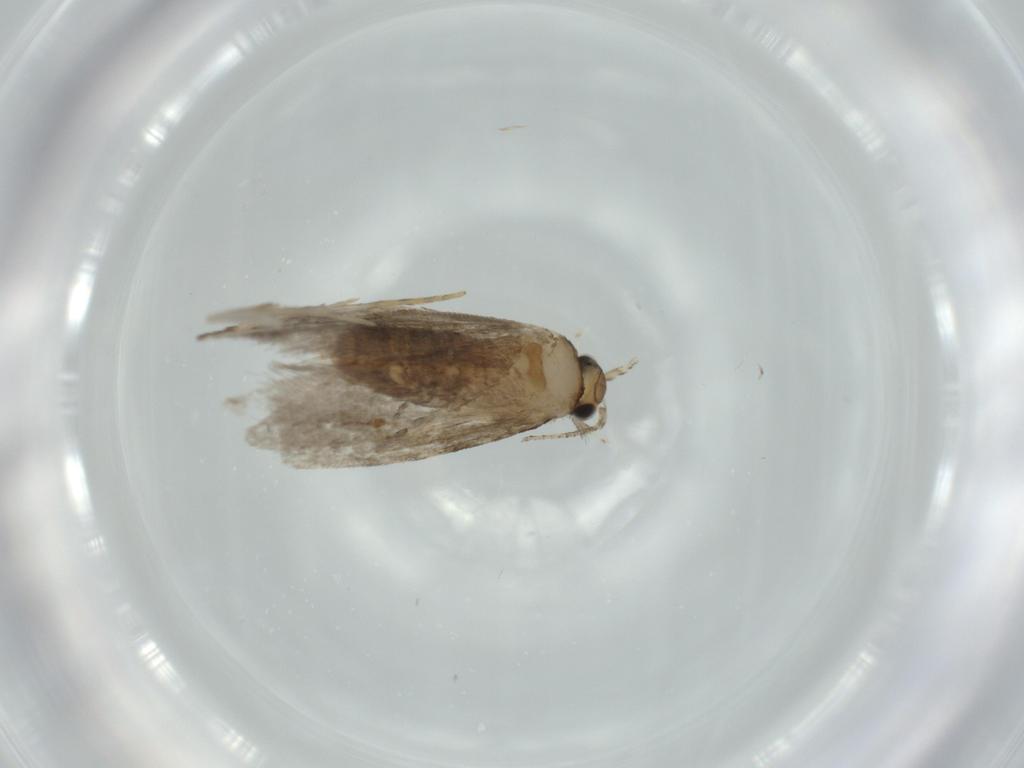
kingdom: Animalia
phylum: Arthropoda
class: Insecta
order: Lepidoptera
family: Tineidae
